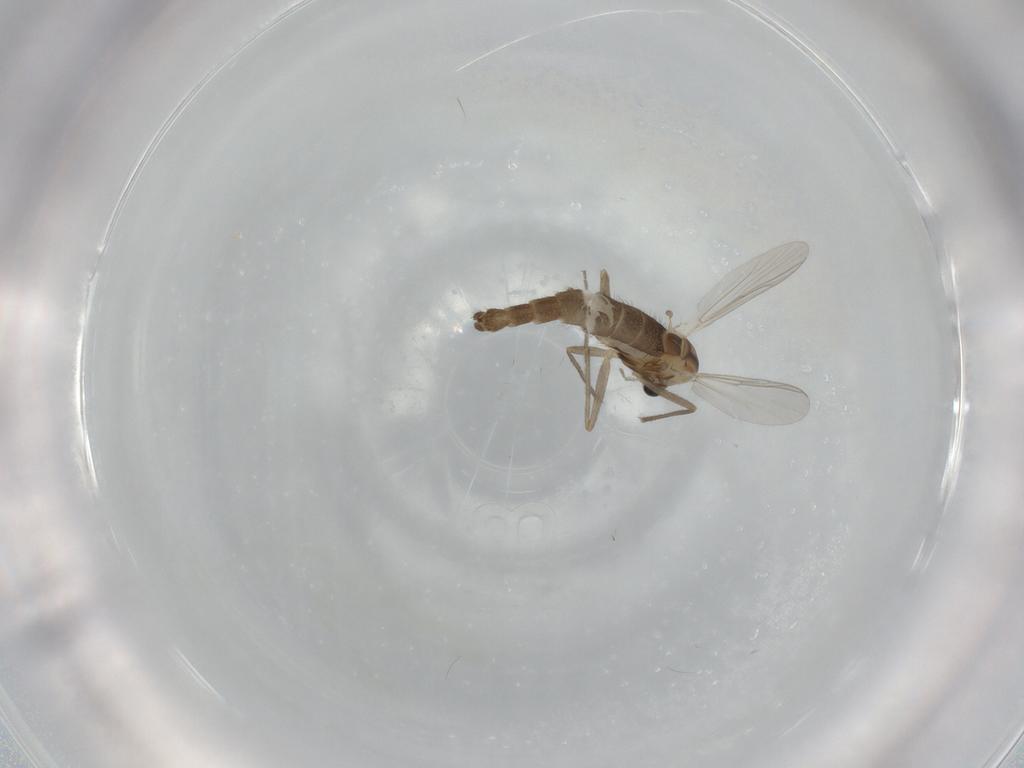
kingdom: Animalia
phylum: Arthropoda
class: Insecta
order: Diptera
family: Chironomidae
